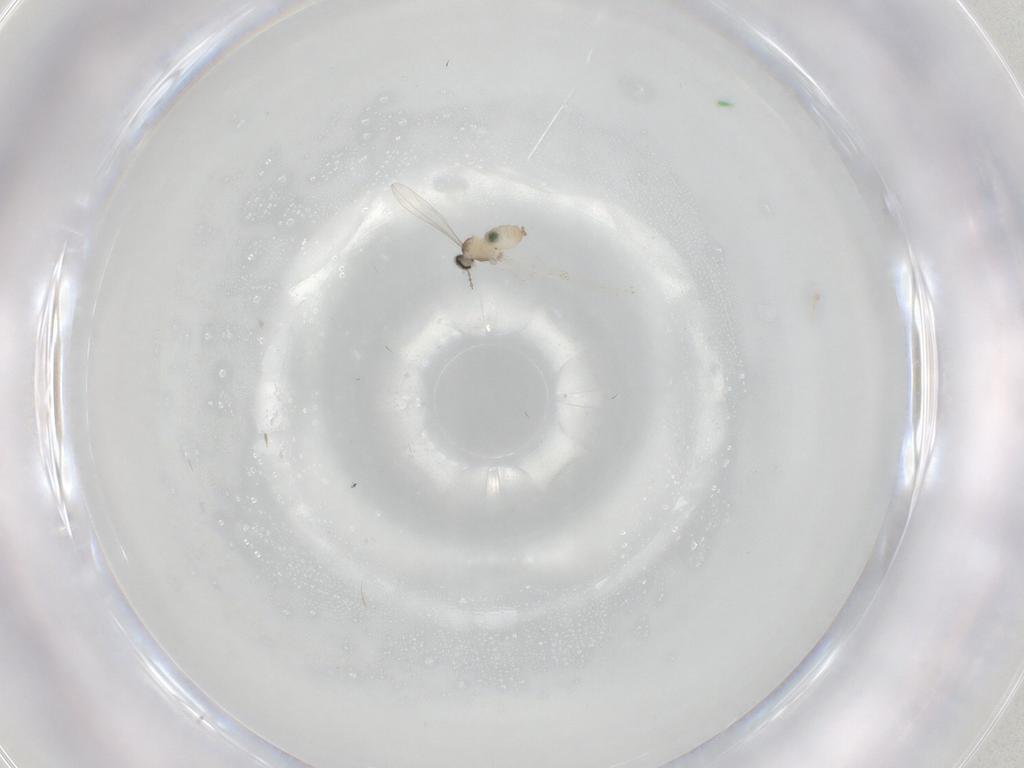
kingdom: Animalia
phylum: Arthropoda
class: Insecta
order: Diptera
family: Cecidomyiidae
